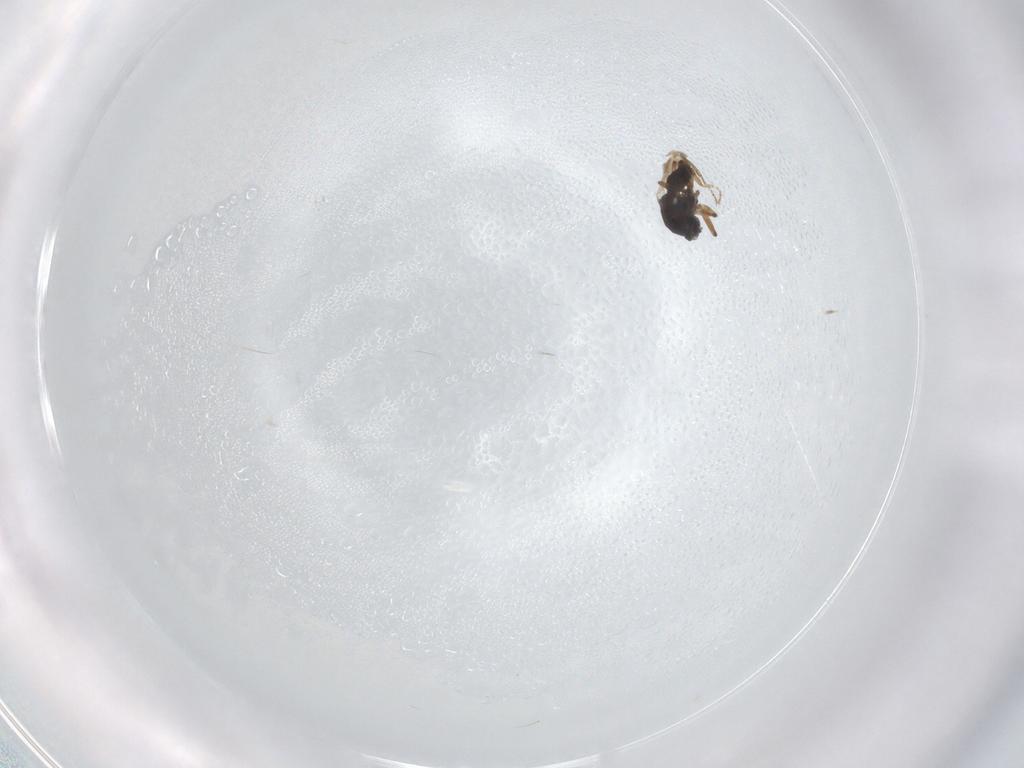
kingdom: Animalia
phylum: Arthropoda
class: Insecta
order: Diptera
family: Ceratopogonidae
